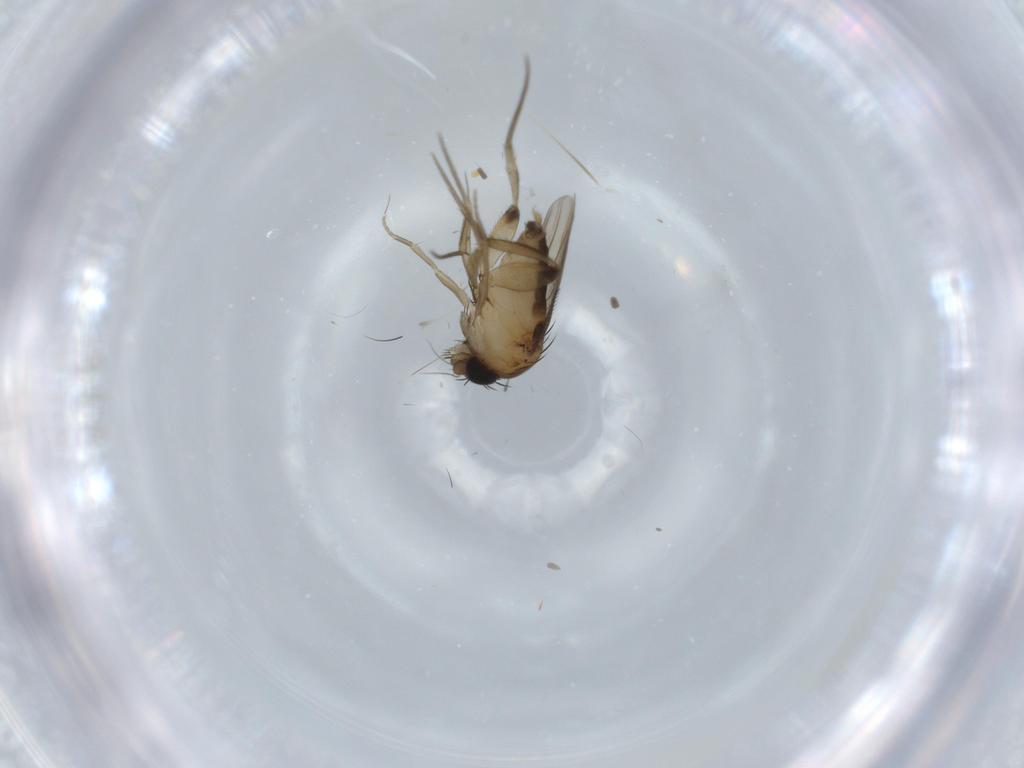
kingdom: Animalia
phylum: Arthropoda
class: Insecta
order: Diptera
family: Phoridae
